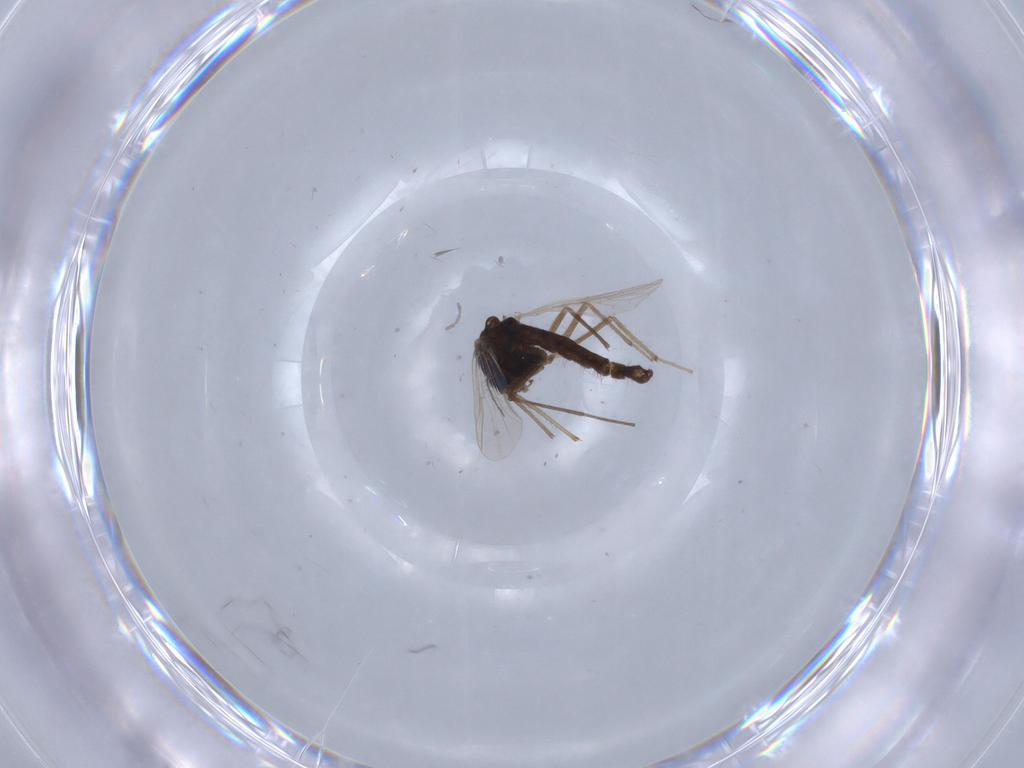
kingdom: Animalia
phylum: Arthropoda
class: Insecta
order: Diptera
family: Chironomidae
